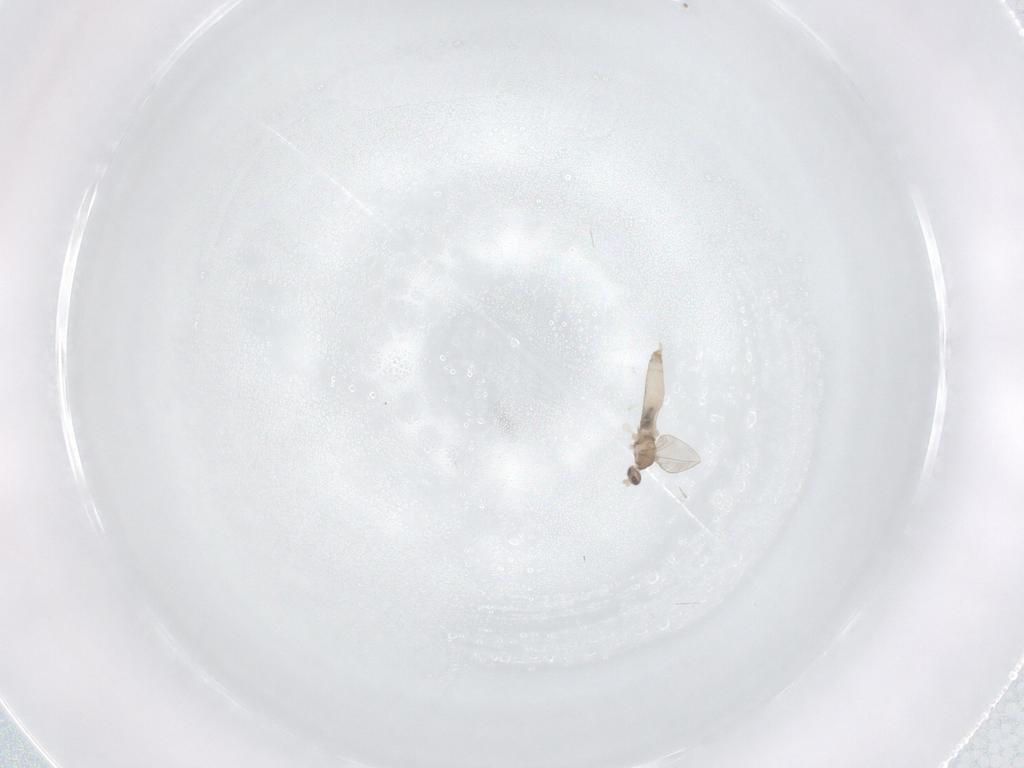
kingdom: Animalia
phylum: Arthropoda
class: Insecta
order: Diptera
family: Cecidomyiidae
